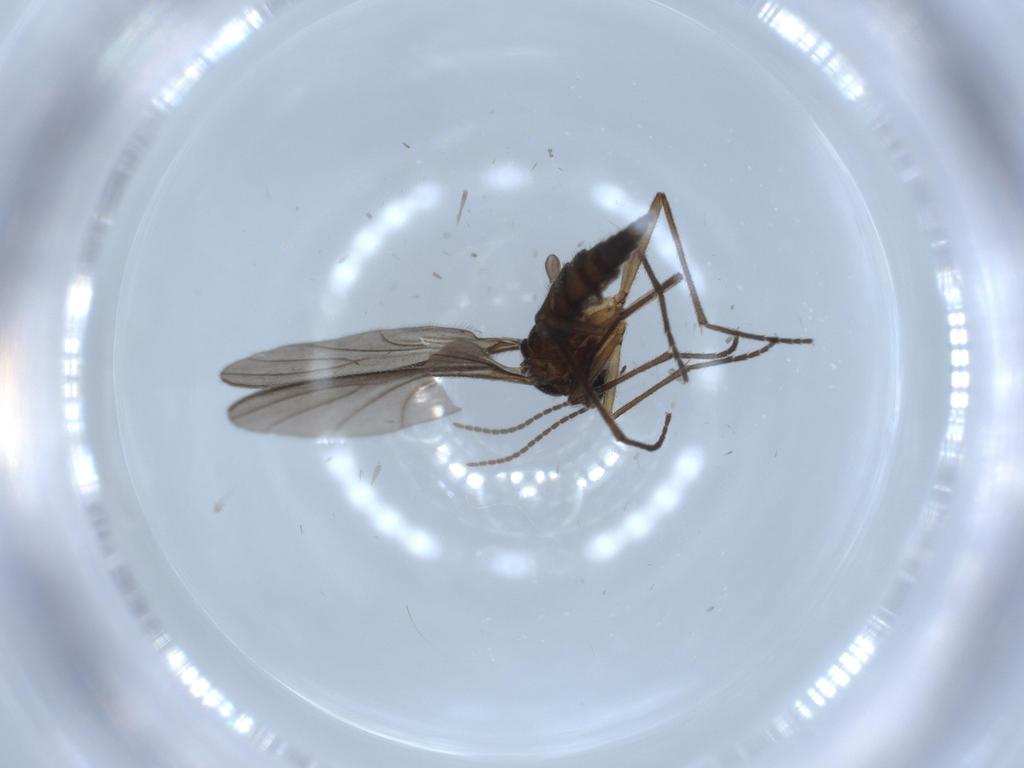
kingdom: Animalia
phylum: Arthropoda
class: Insecta
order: Diptera
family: Cecidomyiidae
